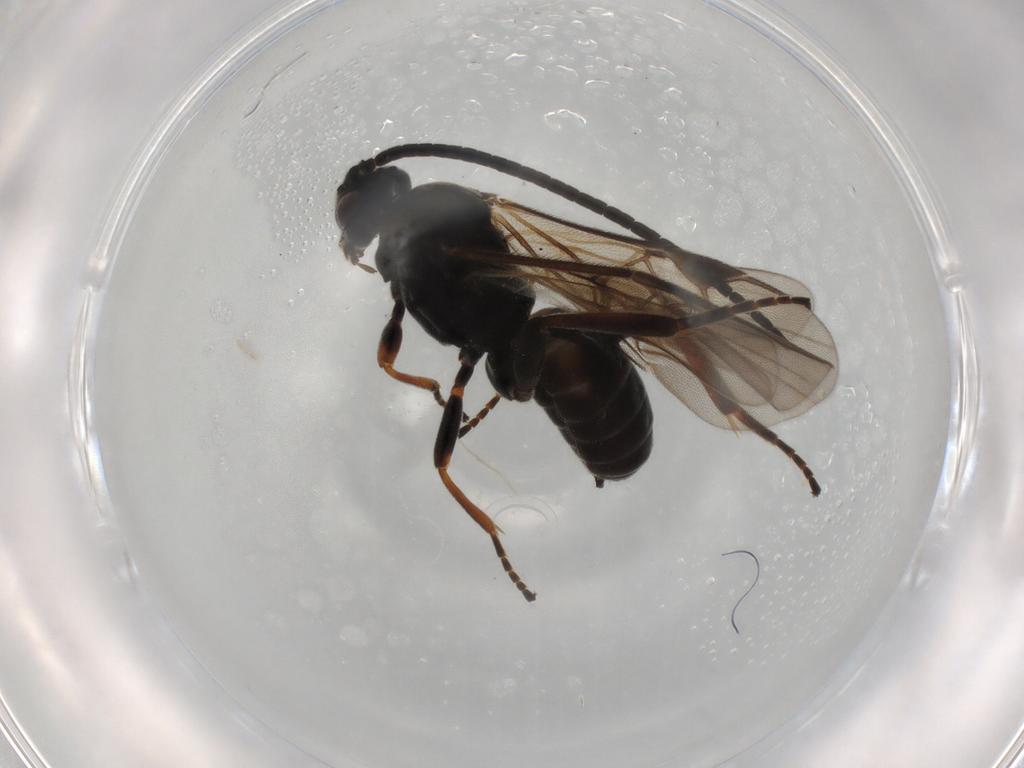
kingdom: Animalia
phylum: Arthropoda
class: Insecta
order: Hymenoptera
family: Braconidae
